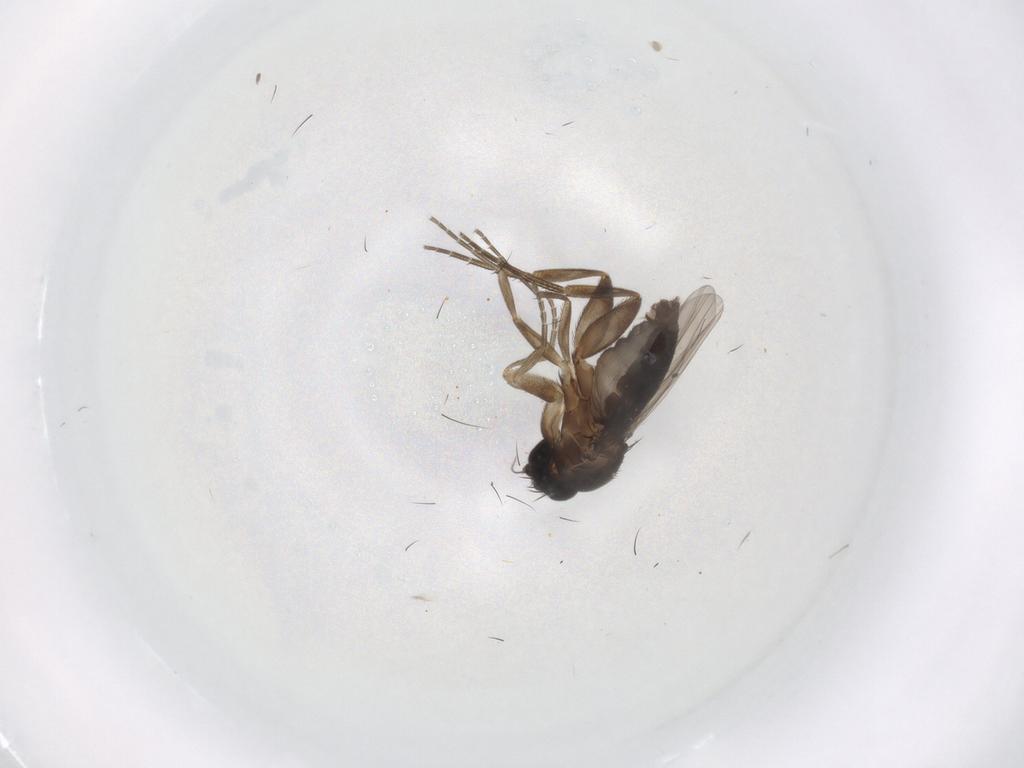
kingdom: Animalia
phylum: Arthropoda
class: Insecta
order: Diptera
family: Phoridae
